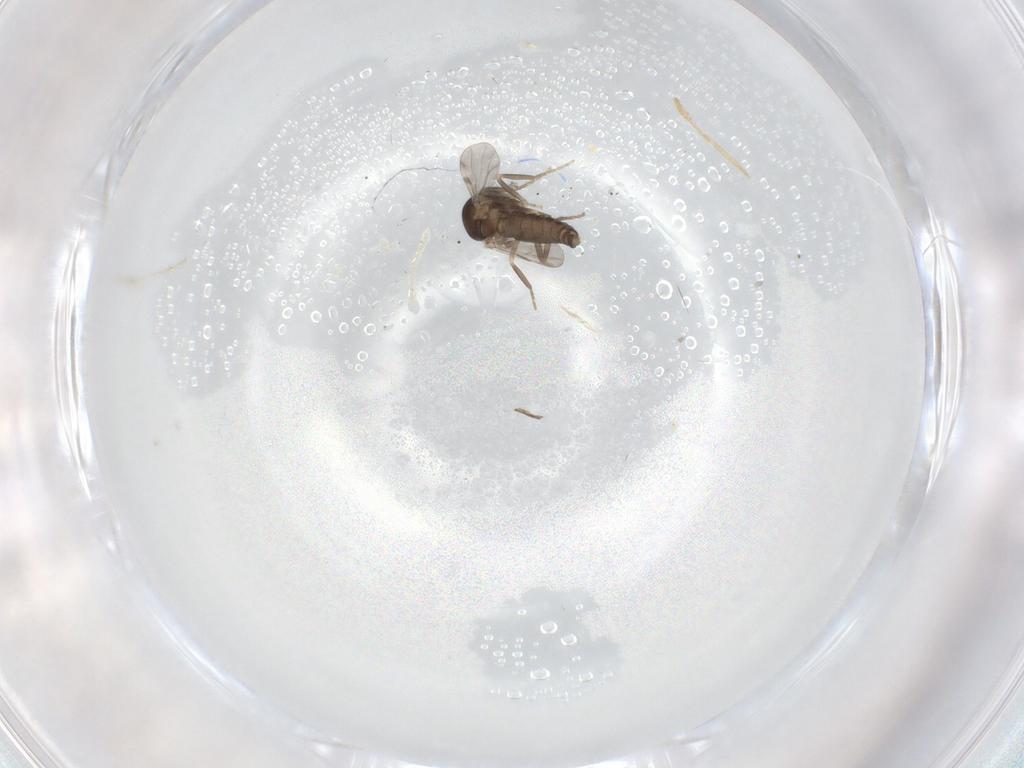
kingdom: Animalia
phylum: Arthropoda
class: Insecta
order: Diptera
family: Ceratopogonidae
